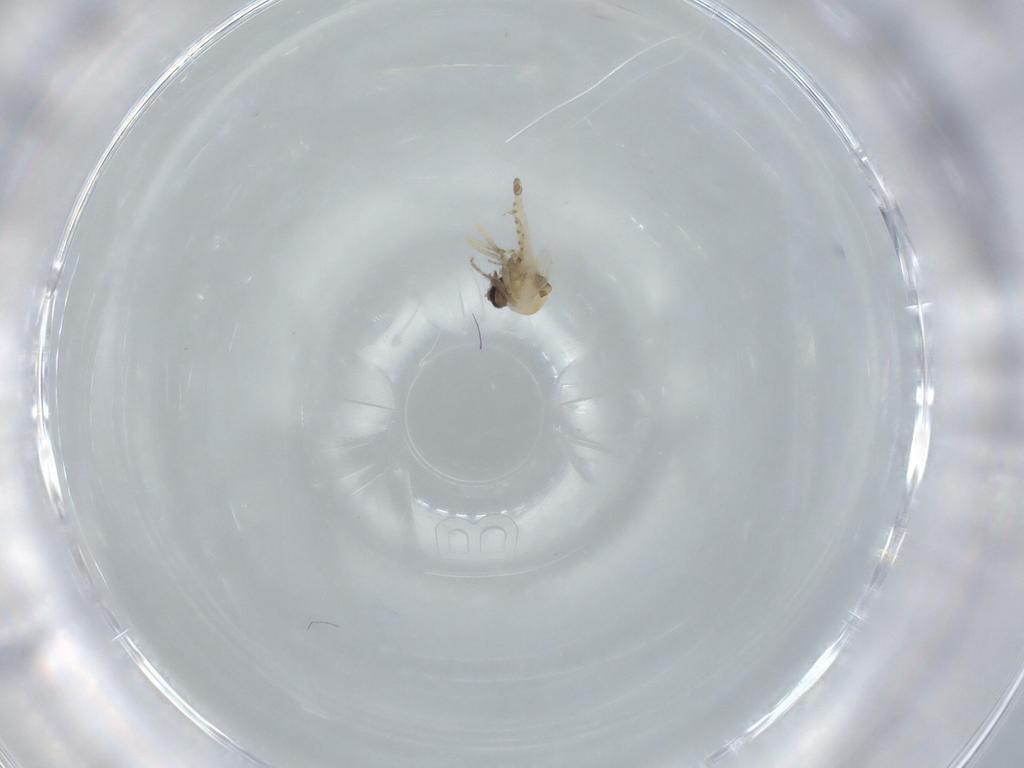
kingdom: Animalia
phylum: Arthropoda
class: Insecta
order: Diptera
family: Ceratopogonidae
